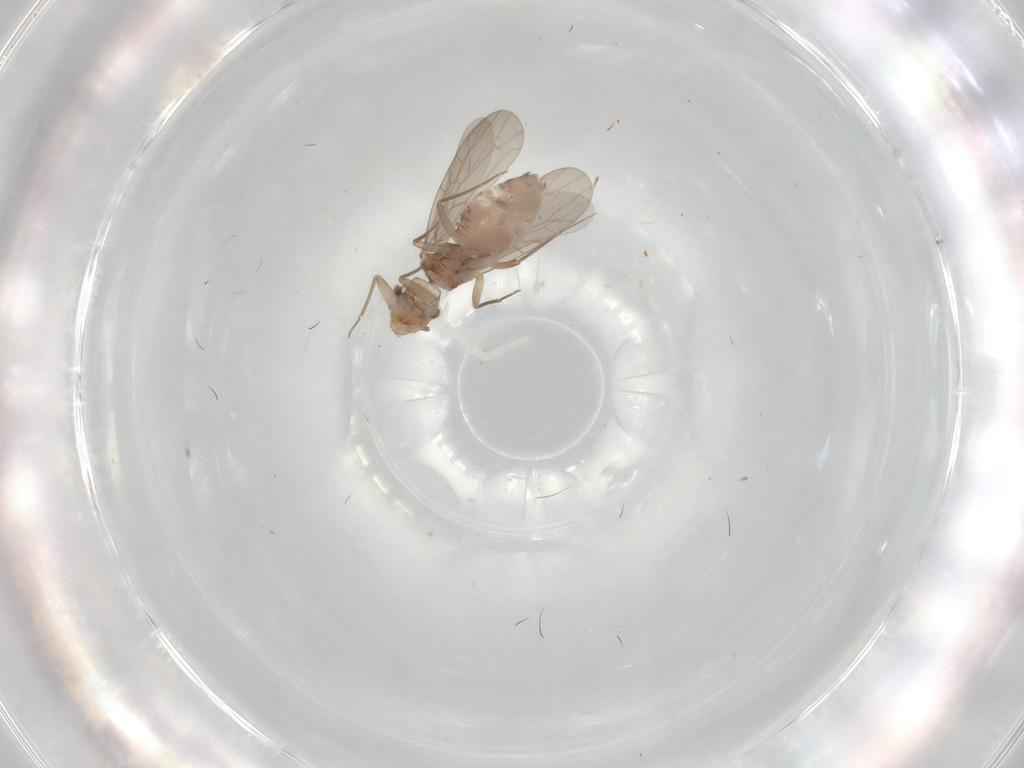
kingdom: Animalia
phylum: Arthropoda
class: Insecta
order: Psocodea
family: Lepidopsocidae
